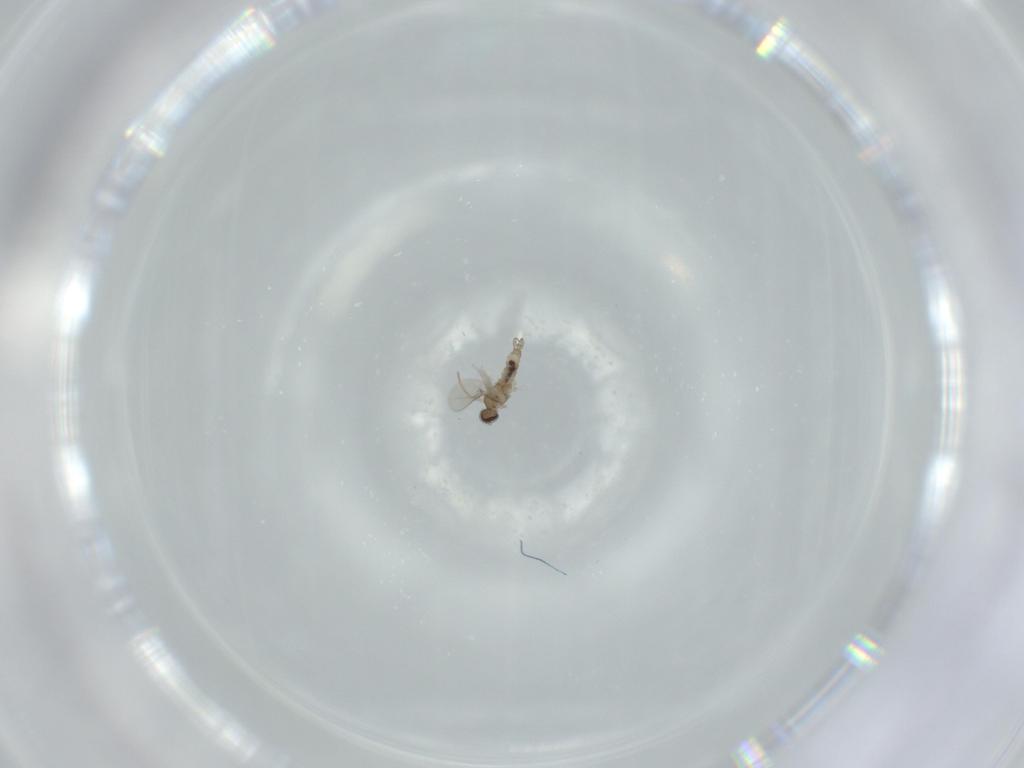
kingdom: Animalia
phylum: Arthropoda
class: Insecta
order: Diptera
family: Cecidomyiidae
